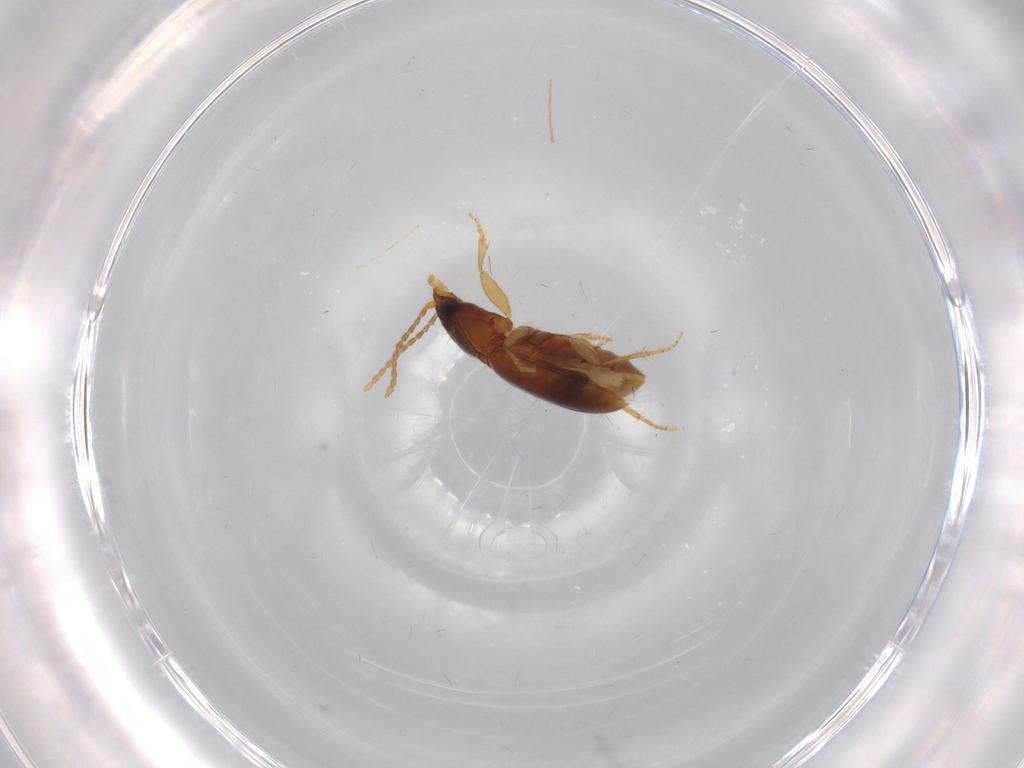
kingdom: Animalia
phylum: Arthropoda
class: Insecta
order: Coleoptera
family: Carabidae
